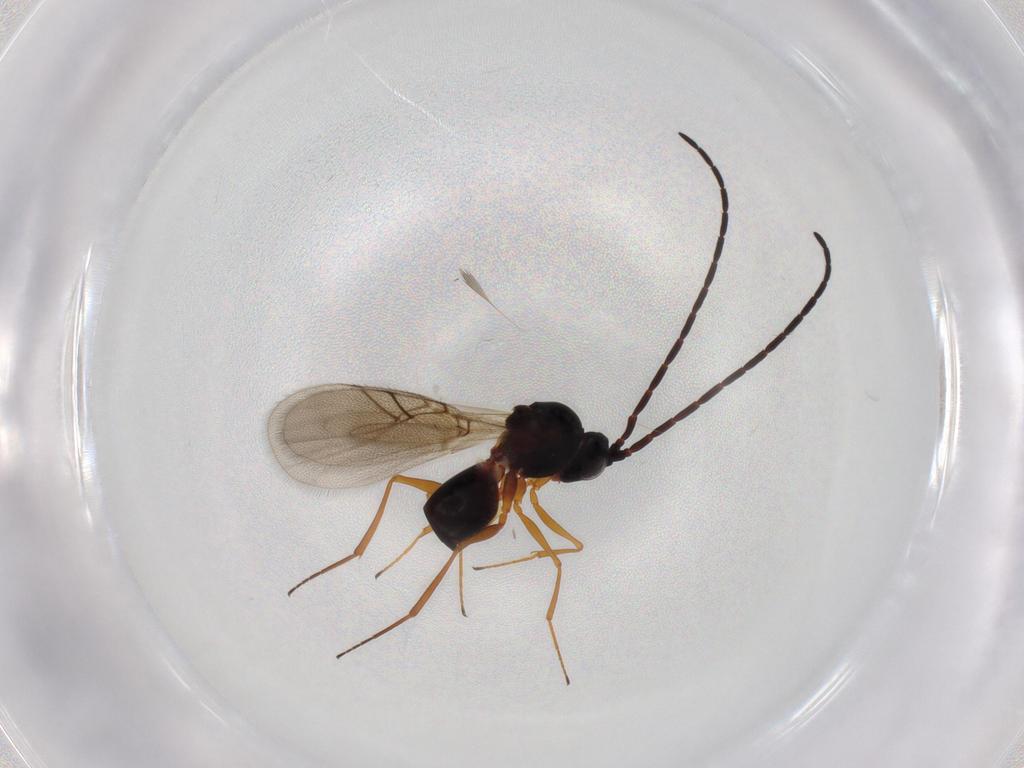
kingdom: Animalia
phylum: Arthropoda
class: Insecta
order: Hymenoptera
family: Figitidae
